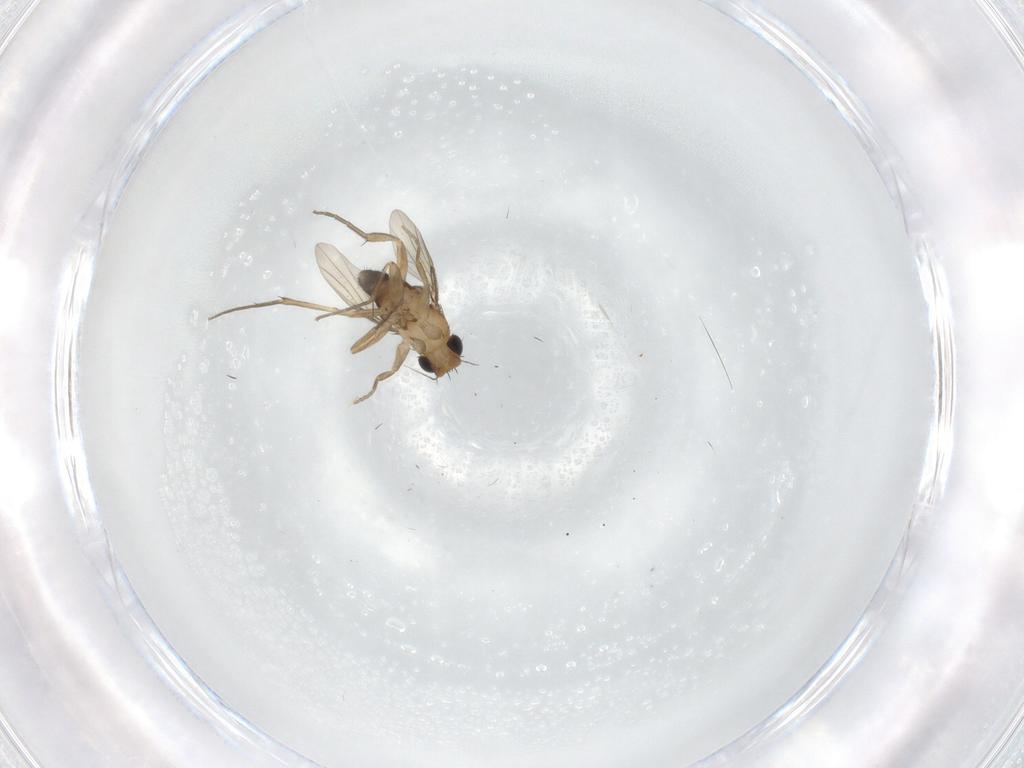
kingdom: Animalia
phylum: Arthropoda
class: Insecta
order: Diptera
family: Phoridae
